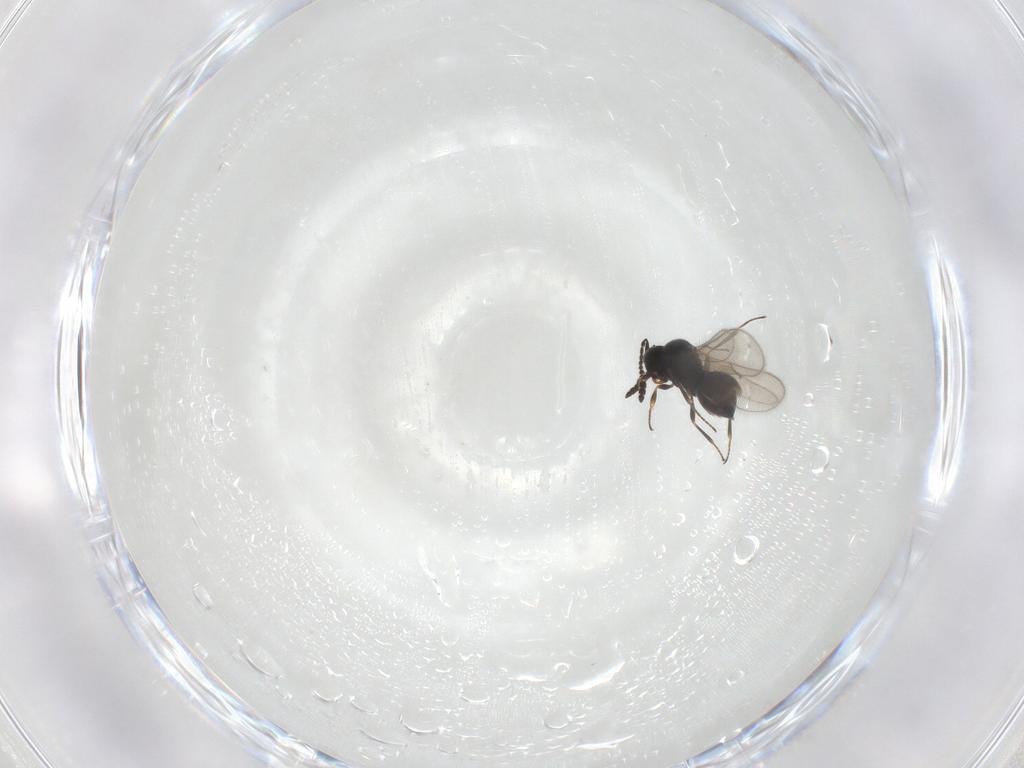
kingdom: Animalia
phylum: Arthropoda
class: Insecta
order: Hymenoptera
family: Scelionidae
